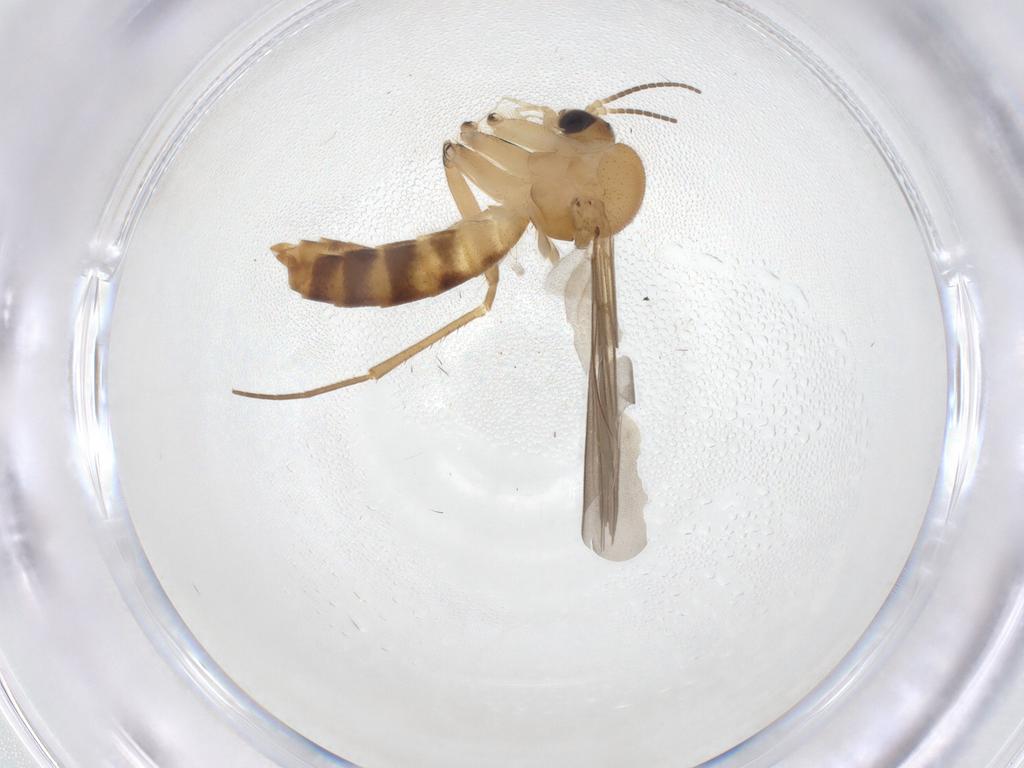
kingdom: Animalia
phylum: Arthropoda
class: Insecta
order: Diptera
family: Mycetophilidae
